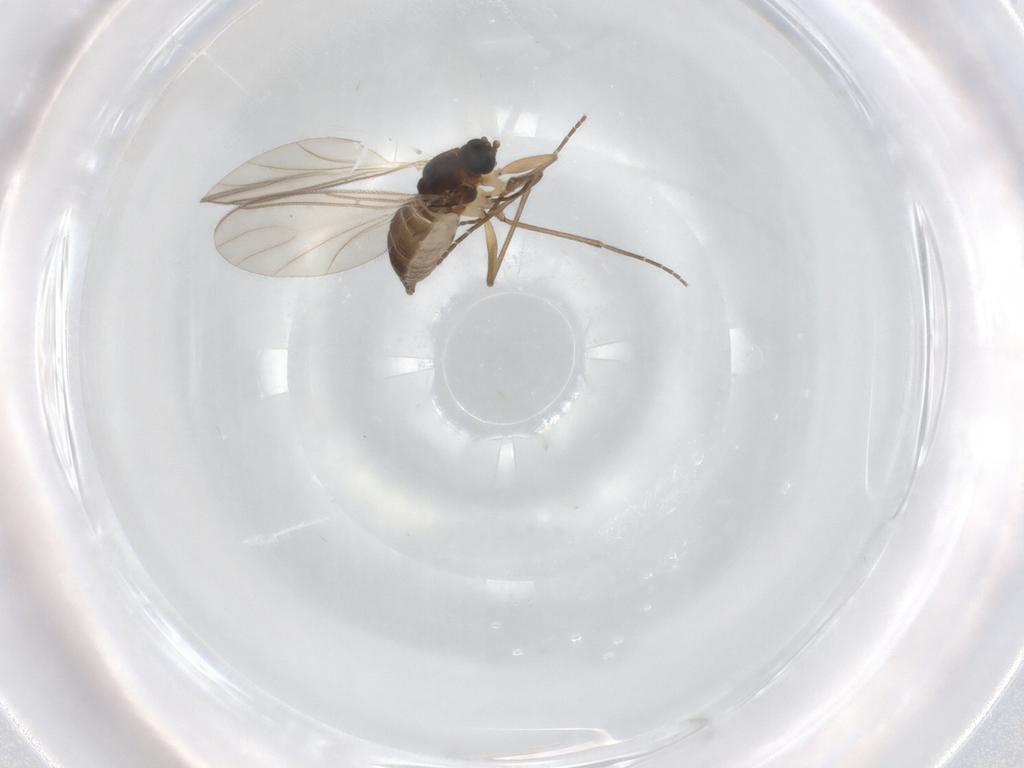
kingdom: Animalia
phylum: Arthropoda
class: Insecta
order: Diptera
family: Sciaridae
